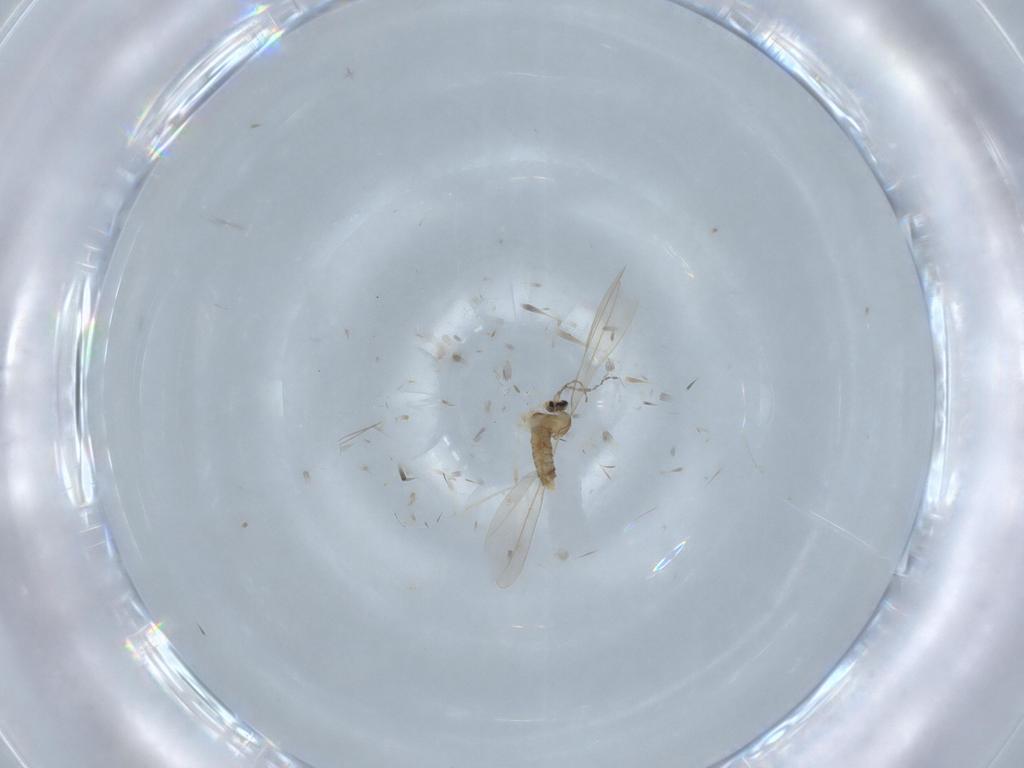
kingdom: Animalia
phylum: Arthropoda
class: Insecta
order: Diptera
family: Cecidomyiidae
